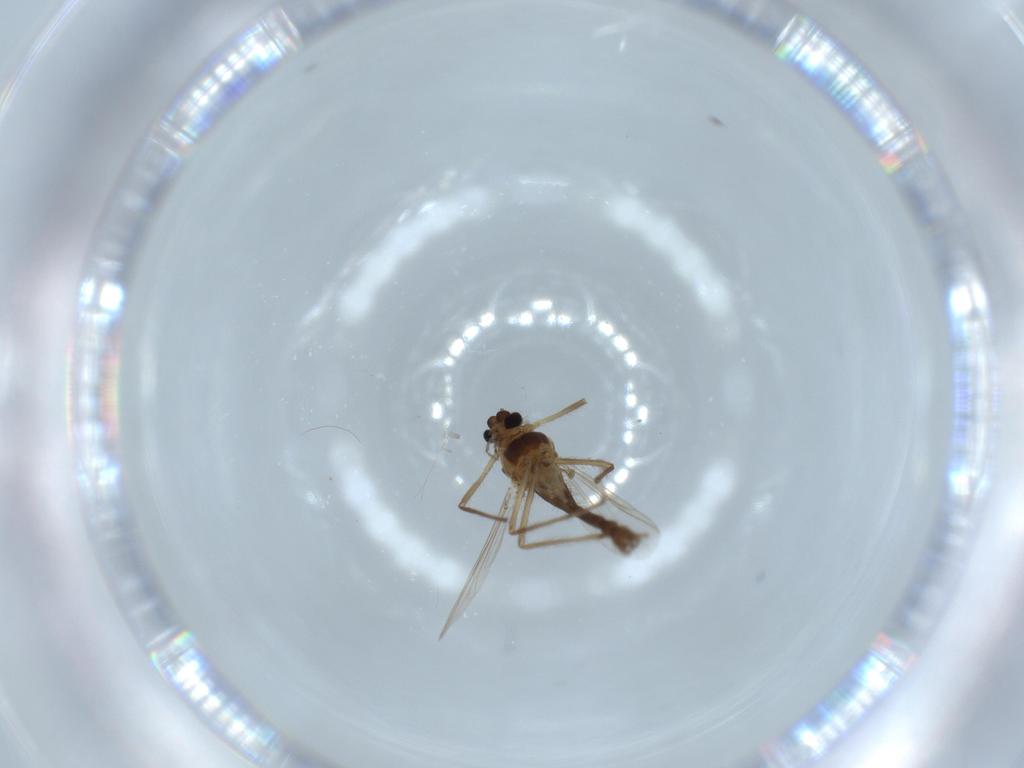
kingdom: Animalia
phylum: Arthropoda
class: Insecta
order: Diptera
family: Chironomidae
